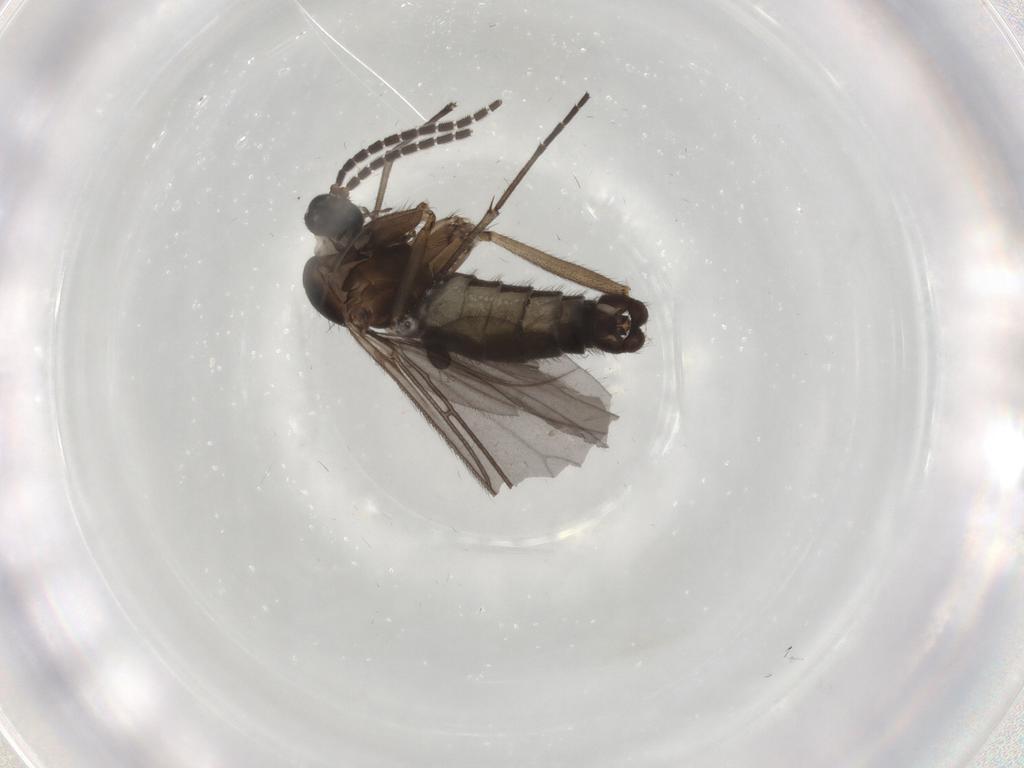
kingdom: Animalia
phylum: Arthropoda
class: Insecta
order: Diptera
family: Sciaridae
